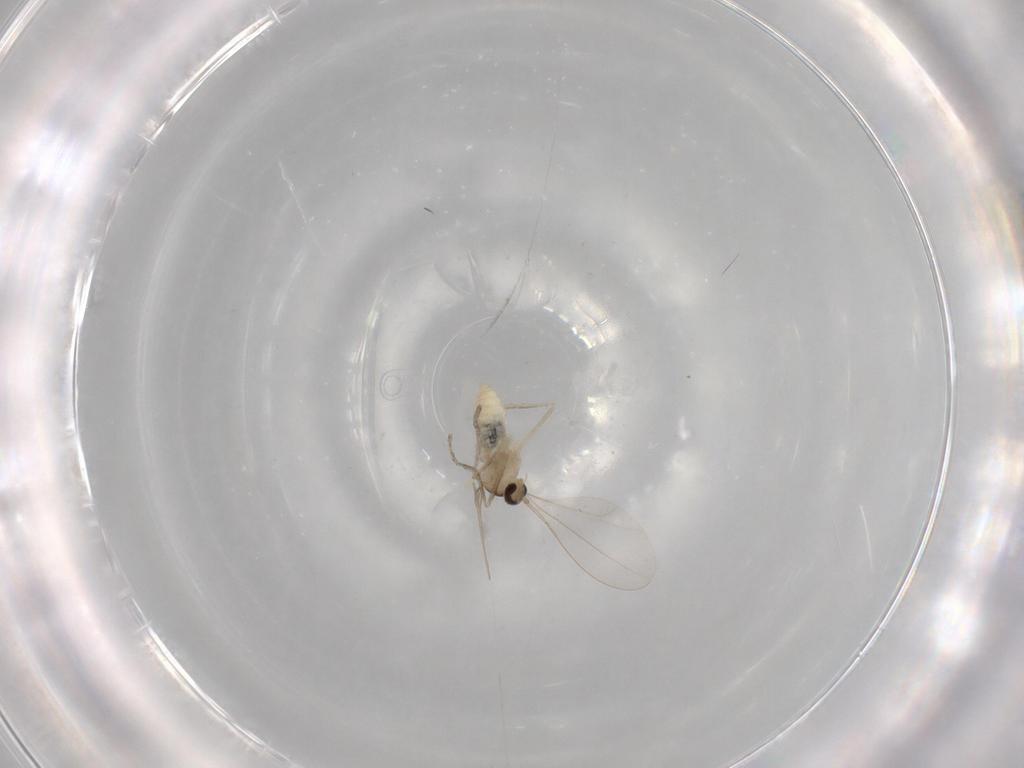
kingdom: Animalia
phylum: Arthropoda
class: Insecta
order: Diptera
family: Cecidomyiidae
